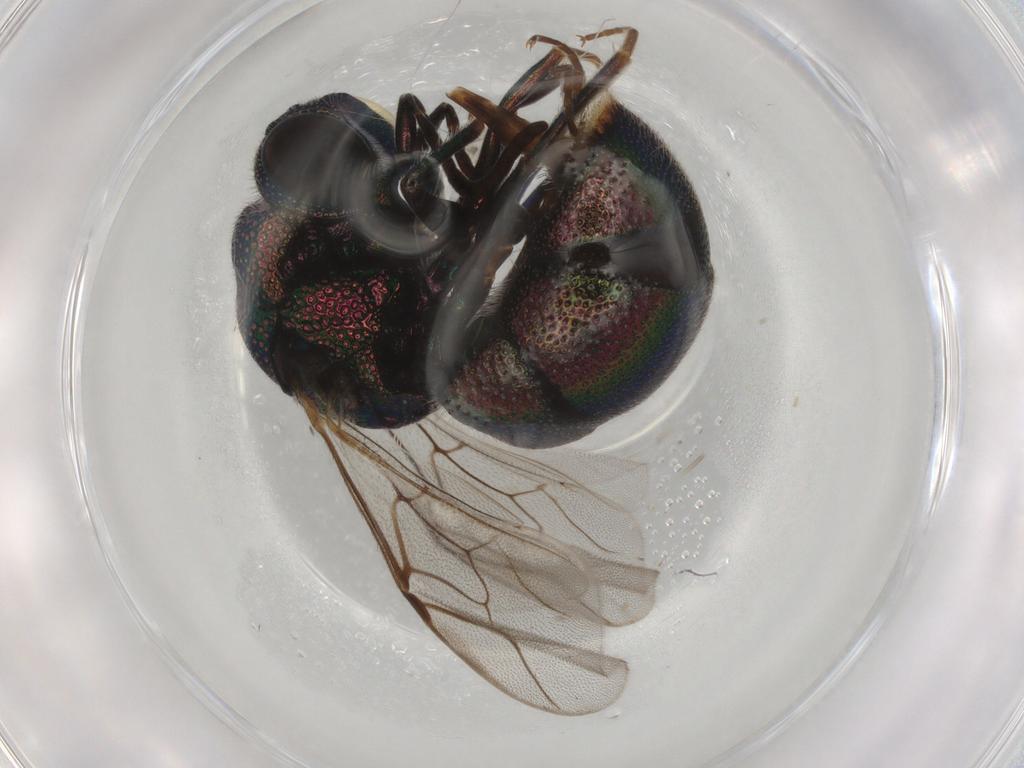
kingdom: Animalia
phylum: Arthropoda
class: Insecta
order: Hymenoptera
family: Chrysididae
